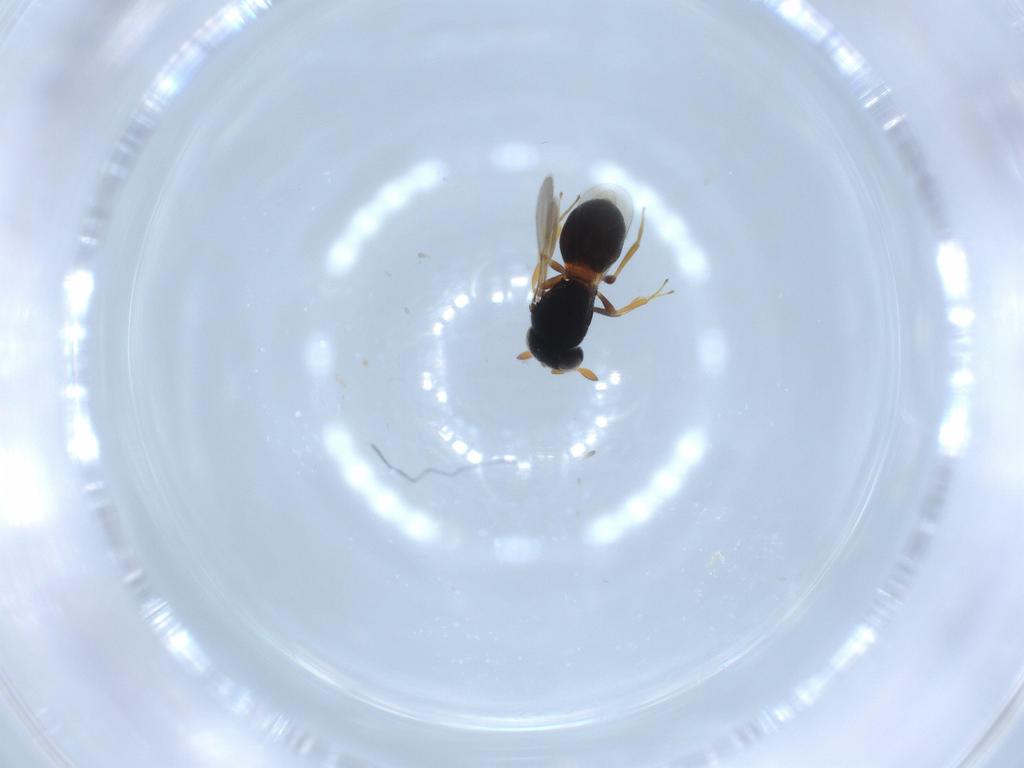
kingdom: Animalia
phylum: Arthropoda
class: Insecta
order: Hymenoptera
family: Scelionidae
